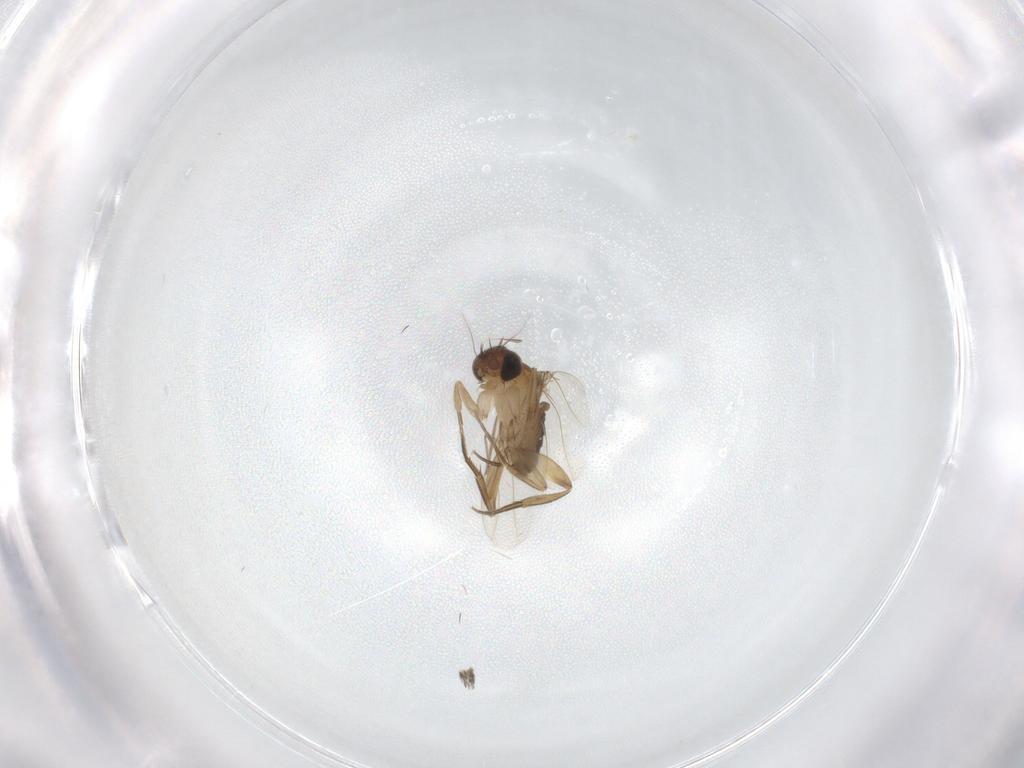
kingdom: Animalia
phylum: Arthropoda
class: Insecta
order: Diptera
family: Phoridae
